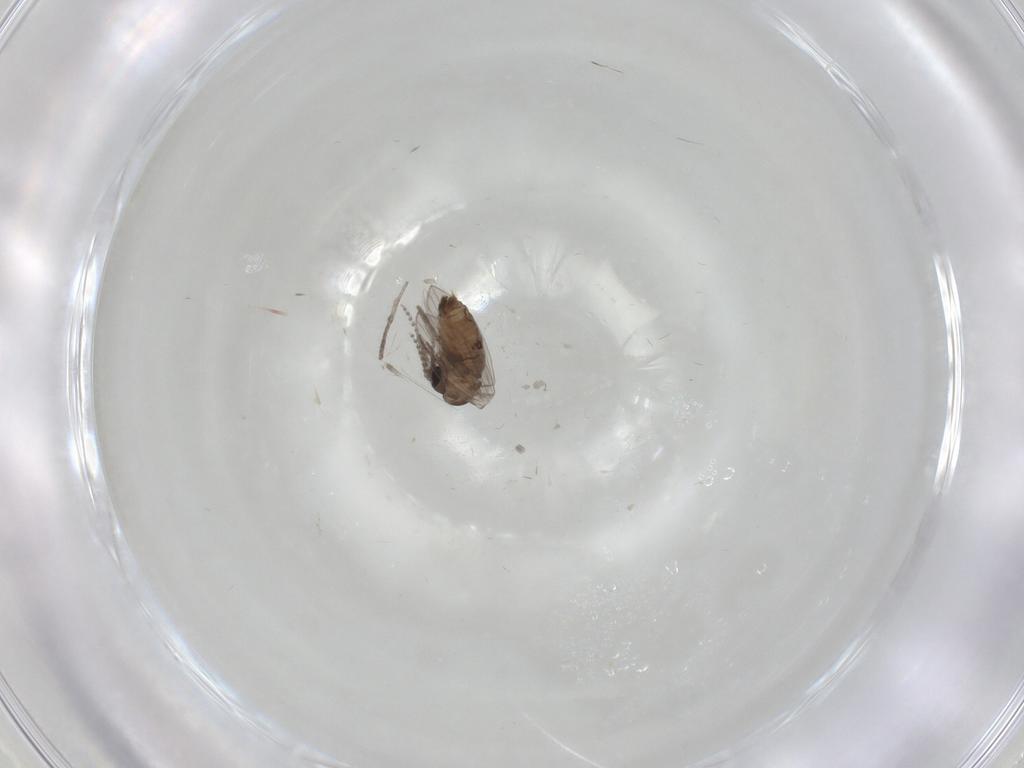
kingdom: Animalia
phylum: Arthropoda
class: Insecta
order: Diptera
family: Psychodidae
